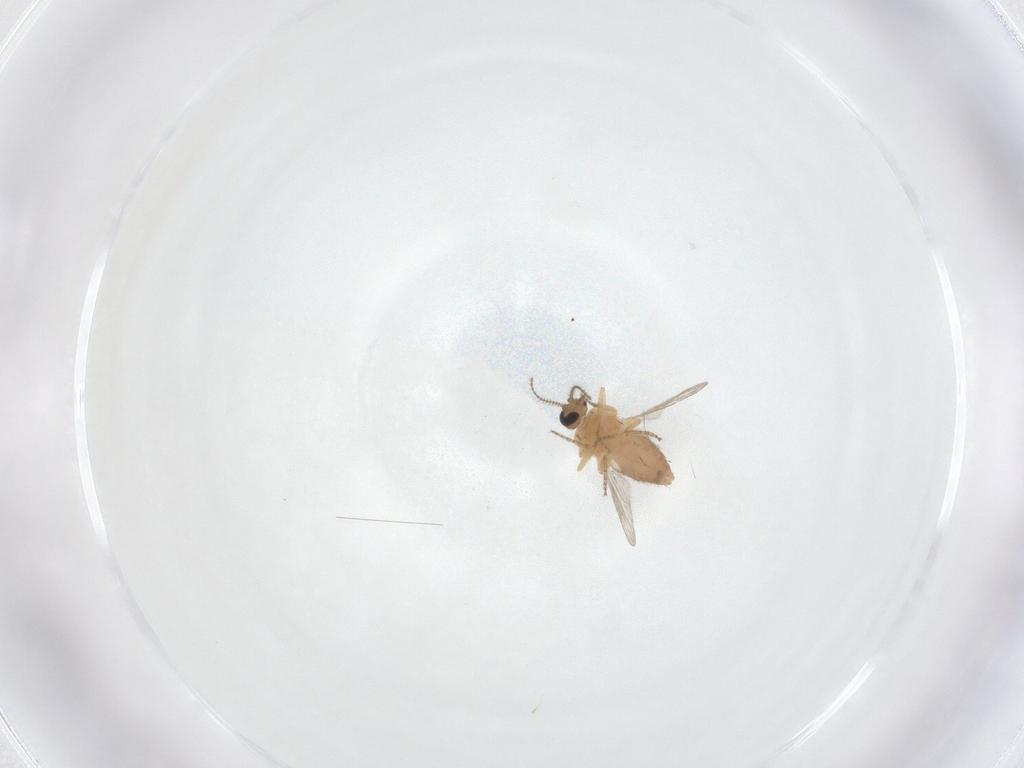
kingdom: Animalia
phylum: Arthropoda
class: Insecta
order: Diptera
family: Ceratopogonidae
